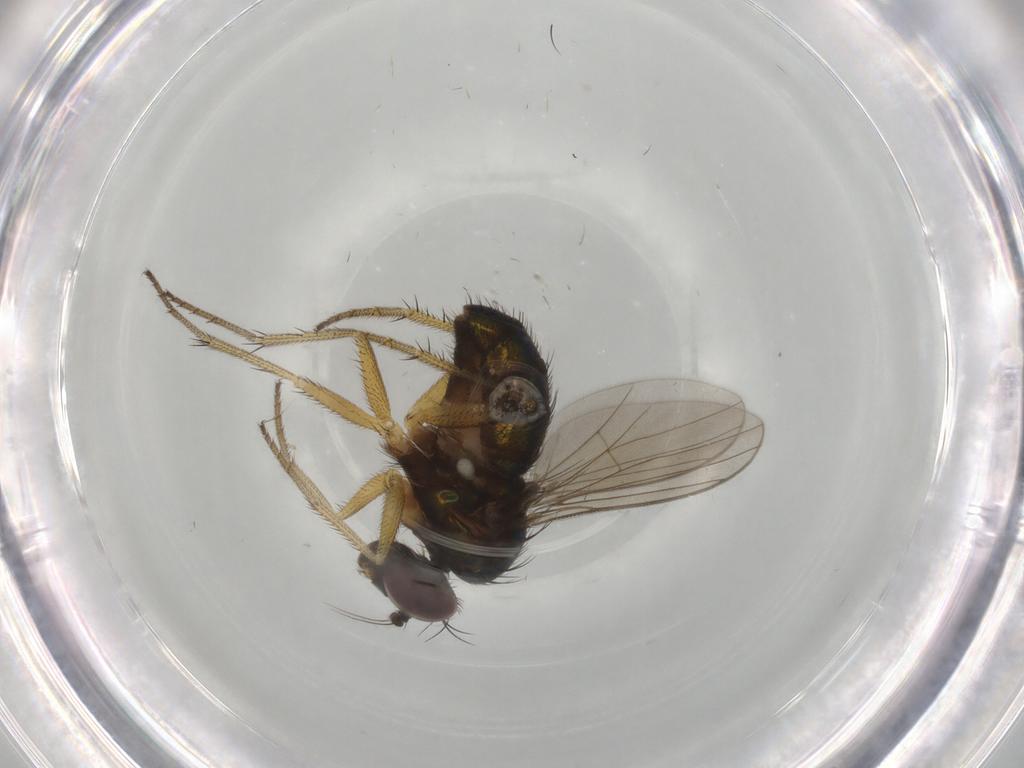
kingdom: Animalia
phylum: Arthropoda
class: Insecta
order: Diptera
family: Dolichopodidae
